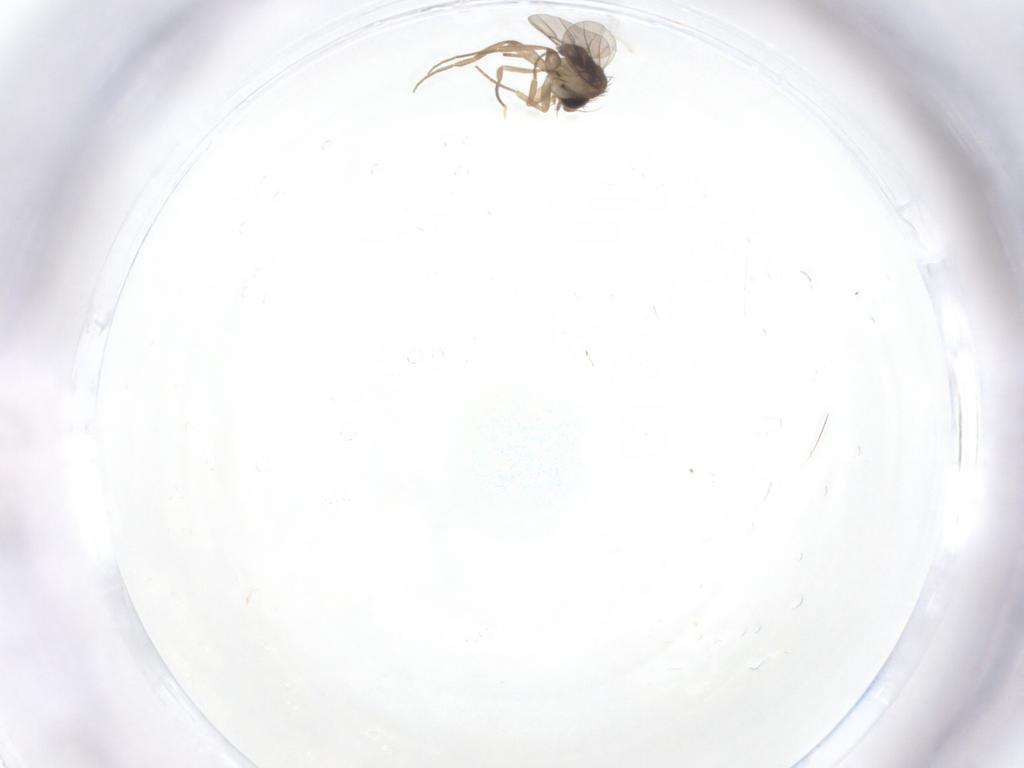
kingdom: Animalia
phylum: Arthropoda
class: Insecta
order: Diptera
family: Phoridae
